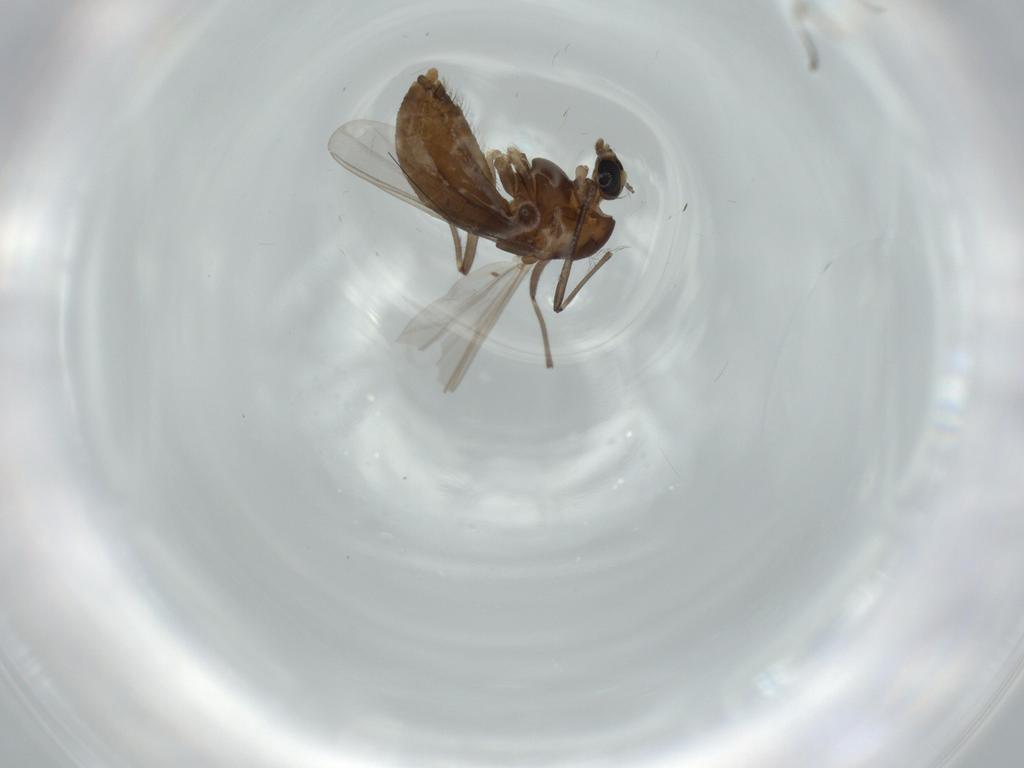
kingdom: Animalia
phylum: Arthropoda
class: Insecta
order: Diptera
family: Chironomidae
